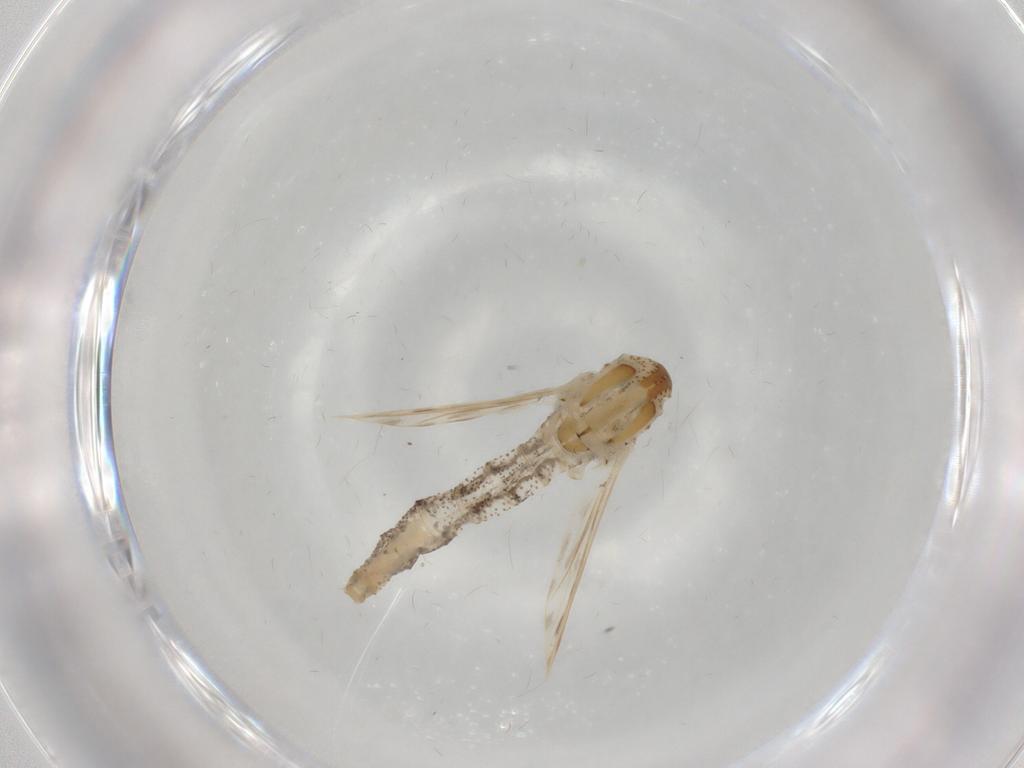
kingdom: Animalia
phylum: Arthropoda
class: Insecta
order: Diptera
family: Chaoboridae
